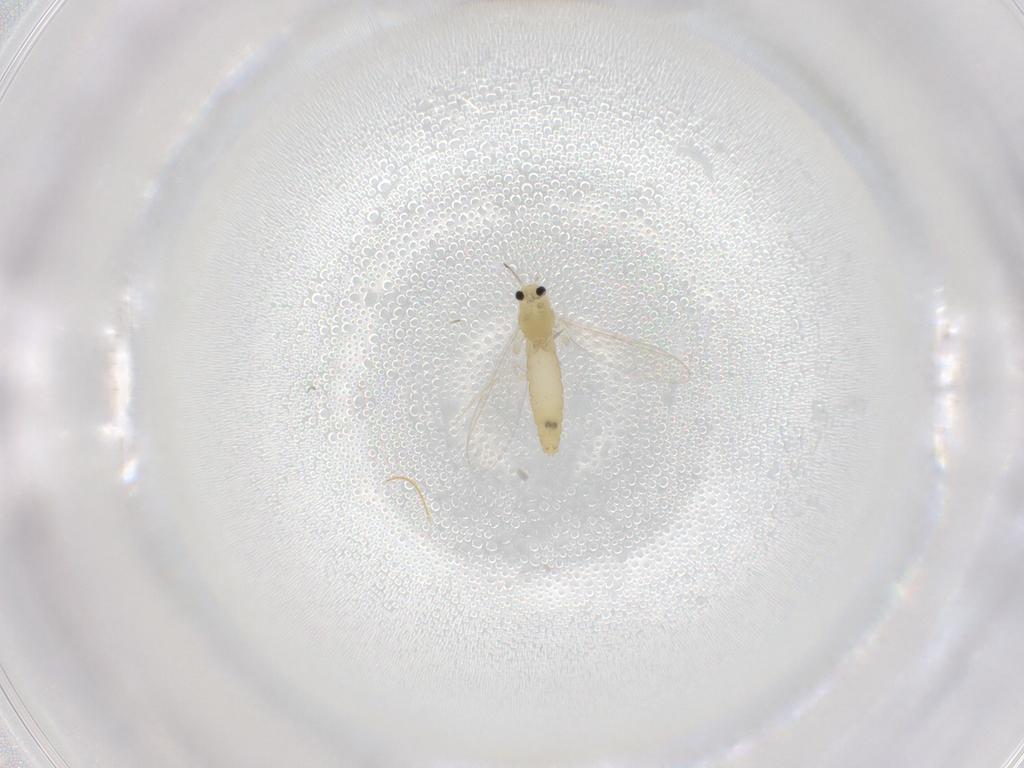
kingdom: Animalia
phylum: Arthropoda
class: Insecta
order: Diptera
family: Chironomidae
